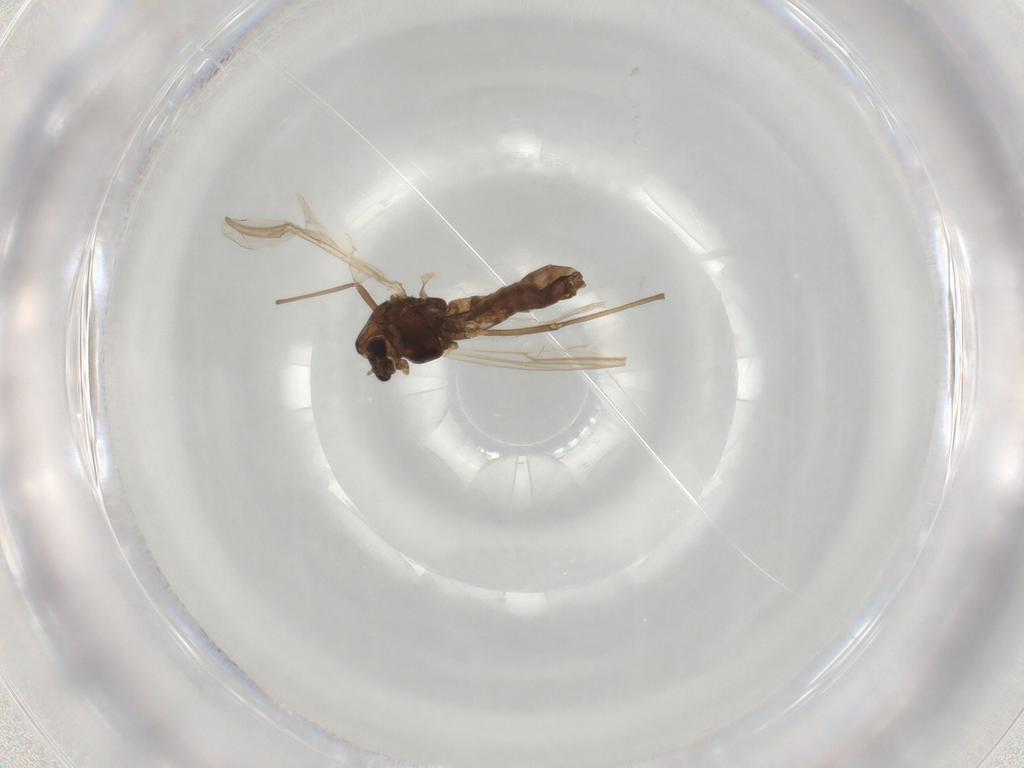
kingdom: Animalia
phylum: Arthropoda
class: Insecta
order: Diptera
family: Chironomidae
